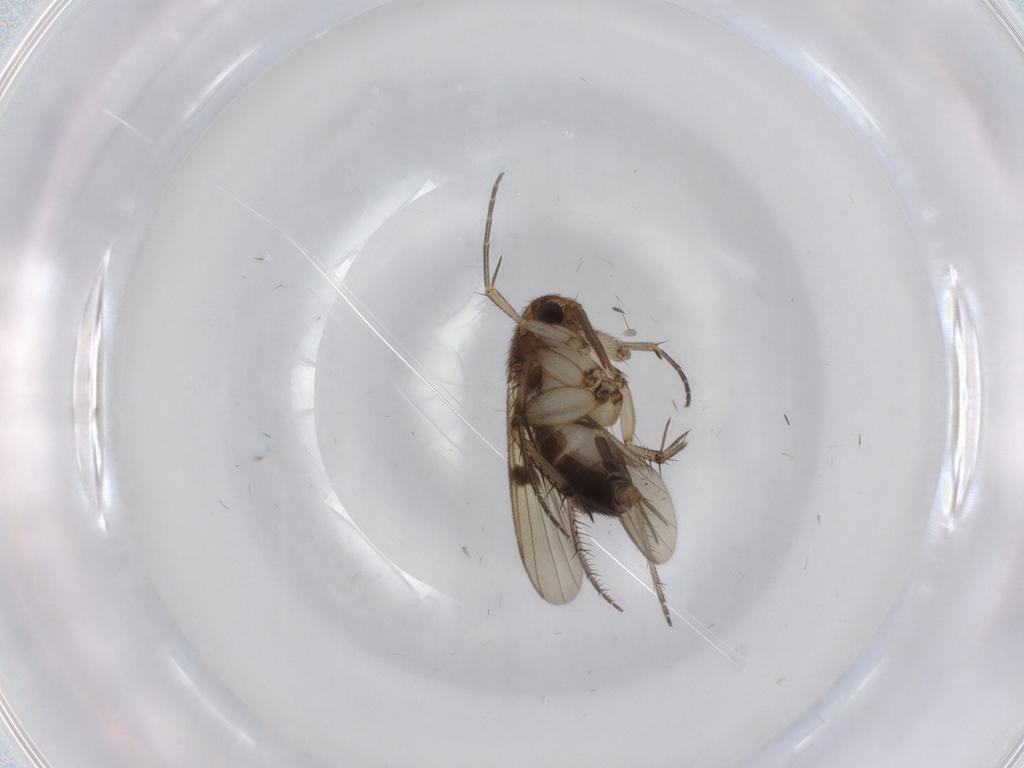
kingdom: Animalia
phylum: Arthropoda
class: Insecta
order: Diptera
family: Mycetophilidae
